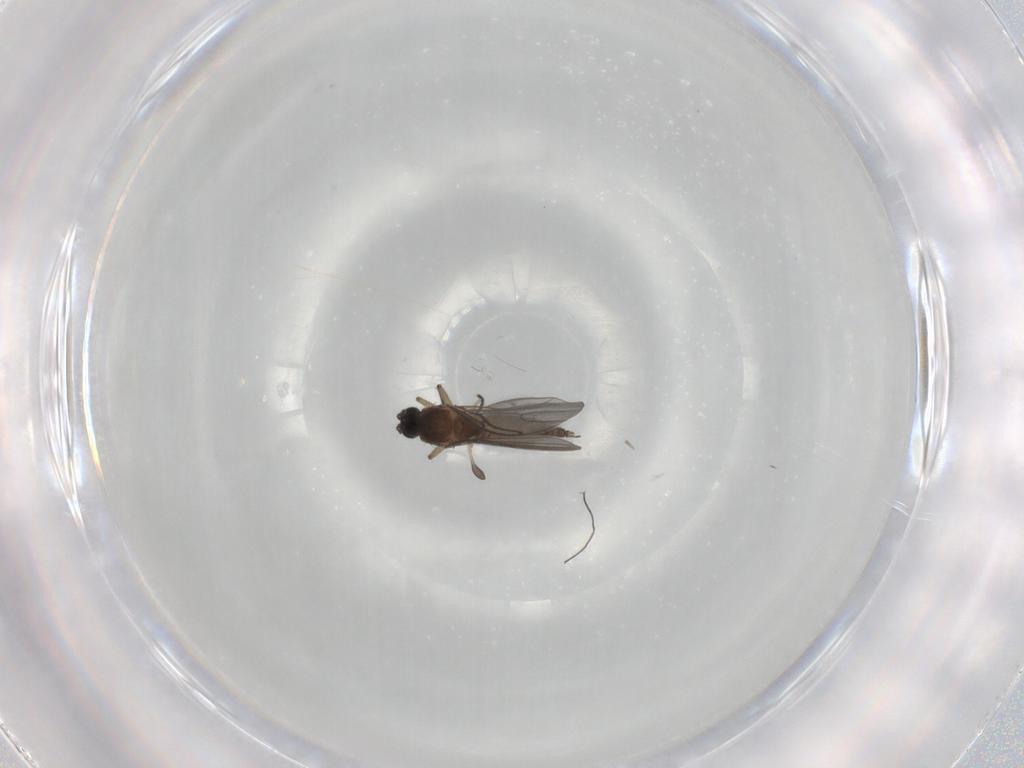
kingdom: Animalia
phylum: Arthropoda
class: Insecta
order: Diptera
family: Sciaridae
